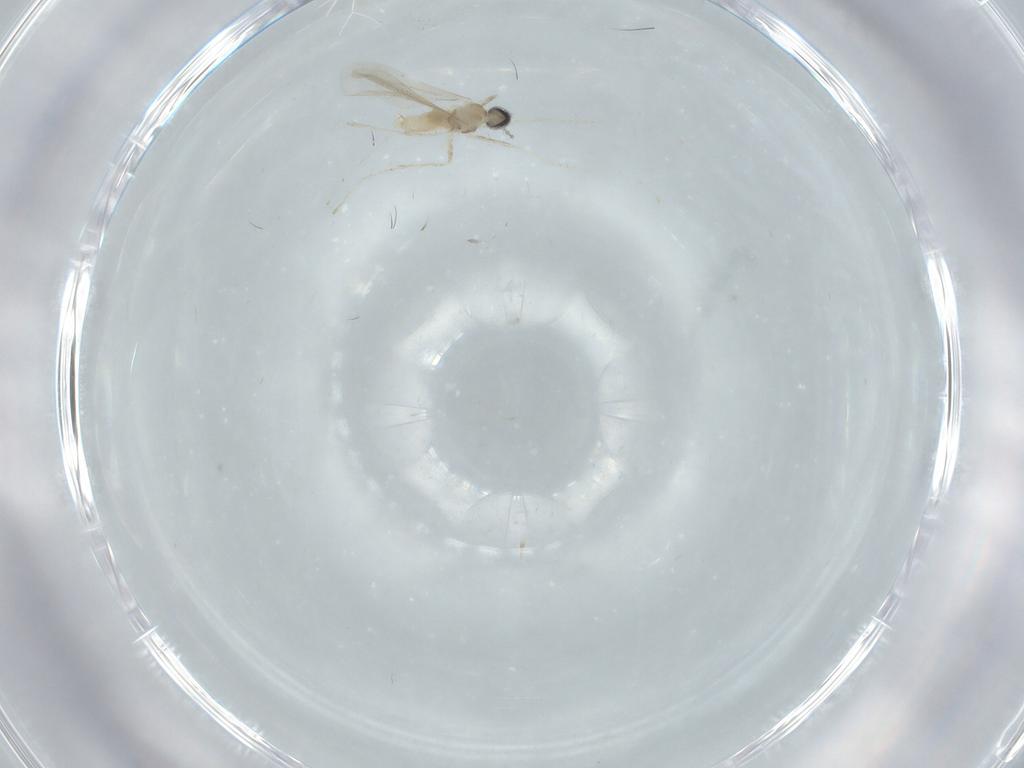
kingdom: Animalia
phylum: Arthropoda
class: Insecta
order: Diptera
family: Cecidomyiidae
